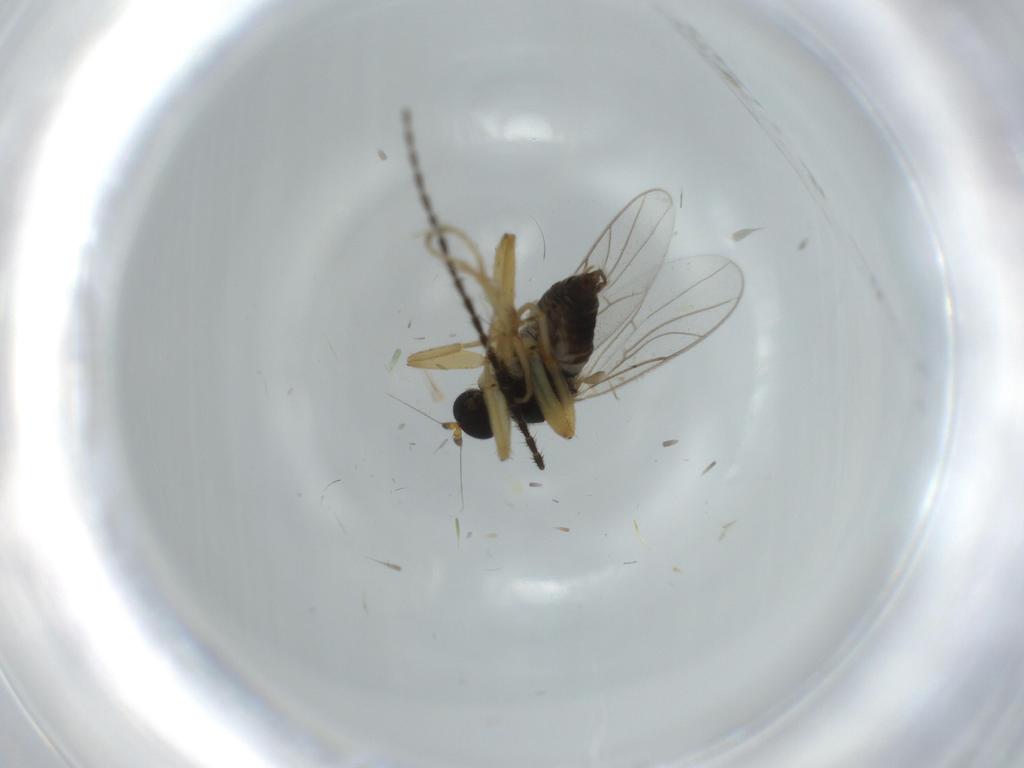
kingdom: Animalia
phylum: Arthropoda
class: Insecta
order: Diptera
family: Hybotidae
